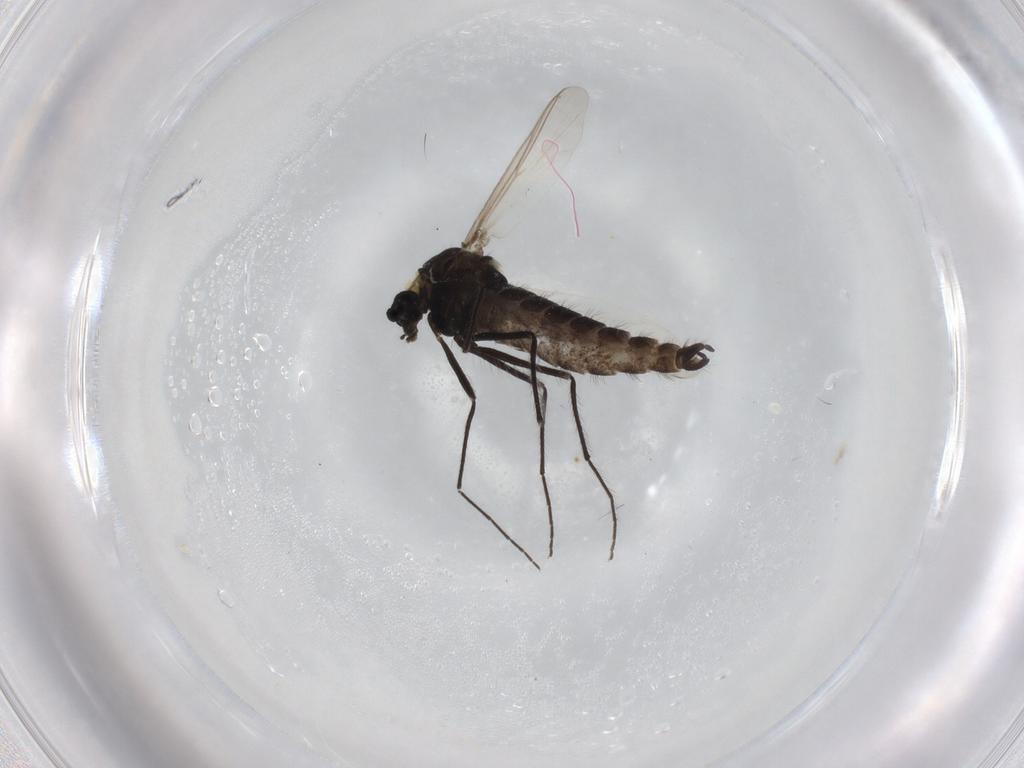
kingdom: Animalia
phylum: Arthropoda
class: Insecta
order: Diptera
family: Chironomidae
